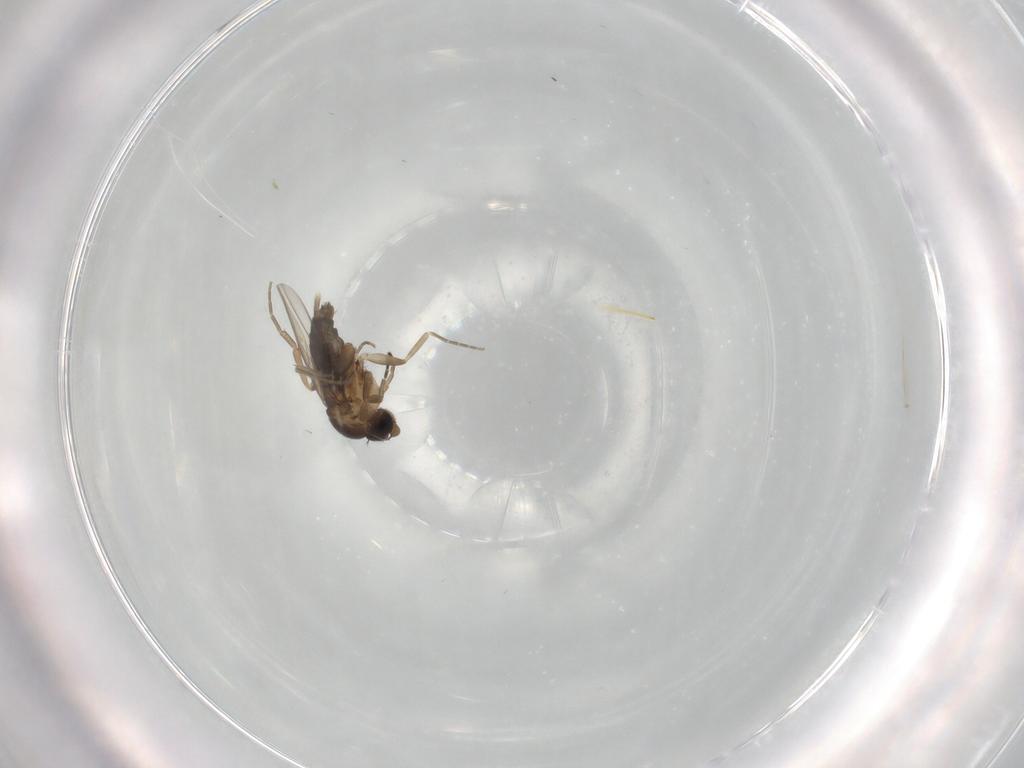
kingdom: Animalia
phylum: Arthropoda
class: Insecta
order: Diptera
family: Phoridae
